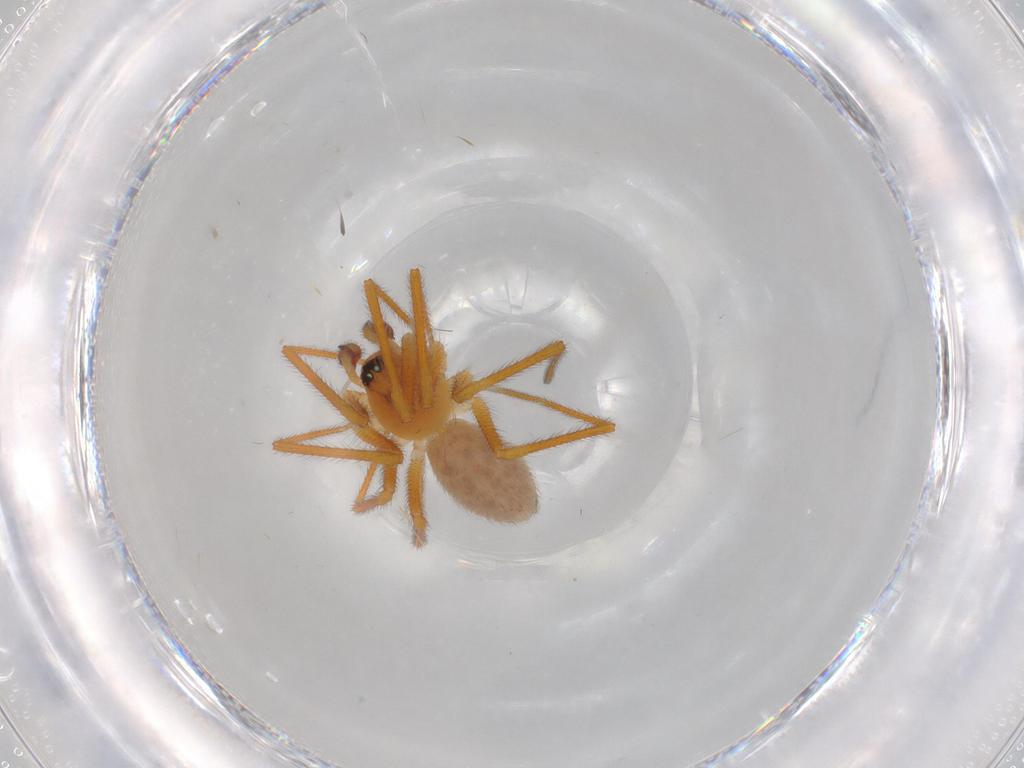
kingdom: Animalia
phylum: Arthropoda
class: Arachnida
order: Araneae
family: Linyphiidae
